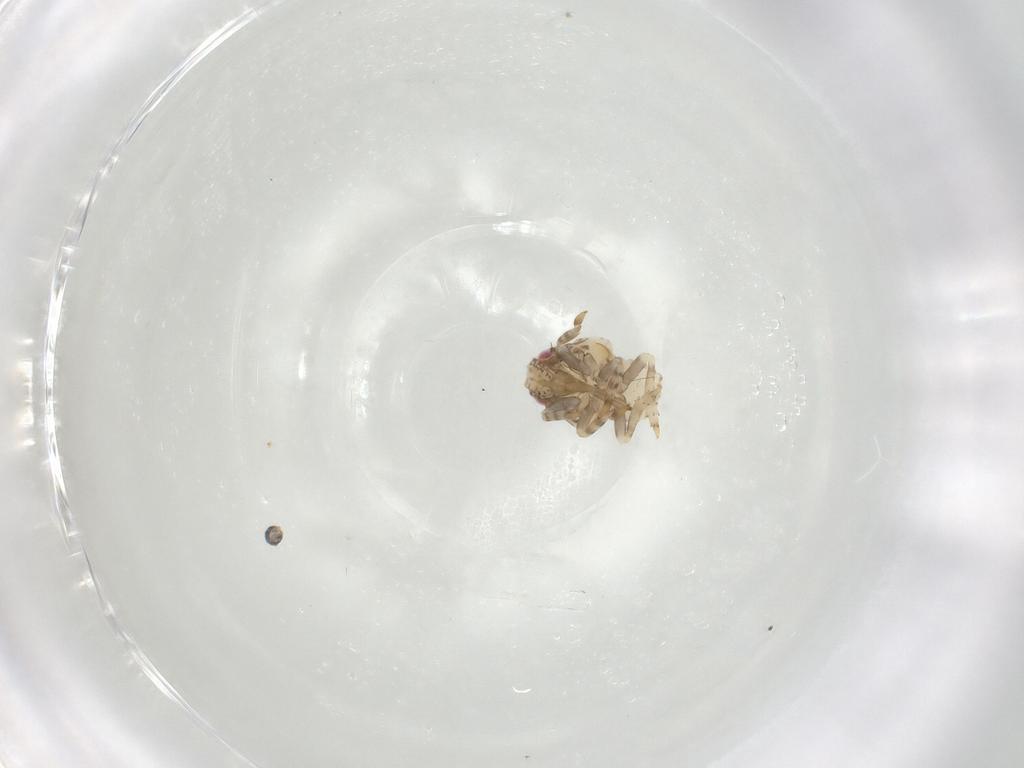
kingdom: Animalia
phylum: Arthropoda
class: Insecta
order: Hemiptera
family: Acanaloniidae
